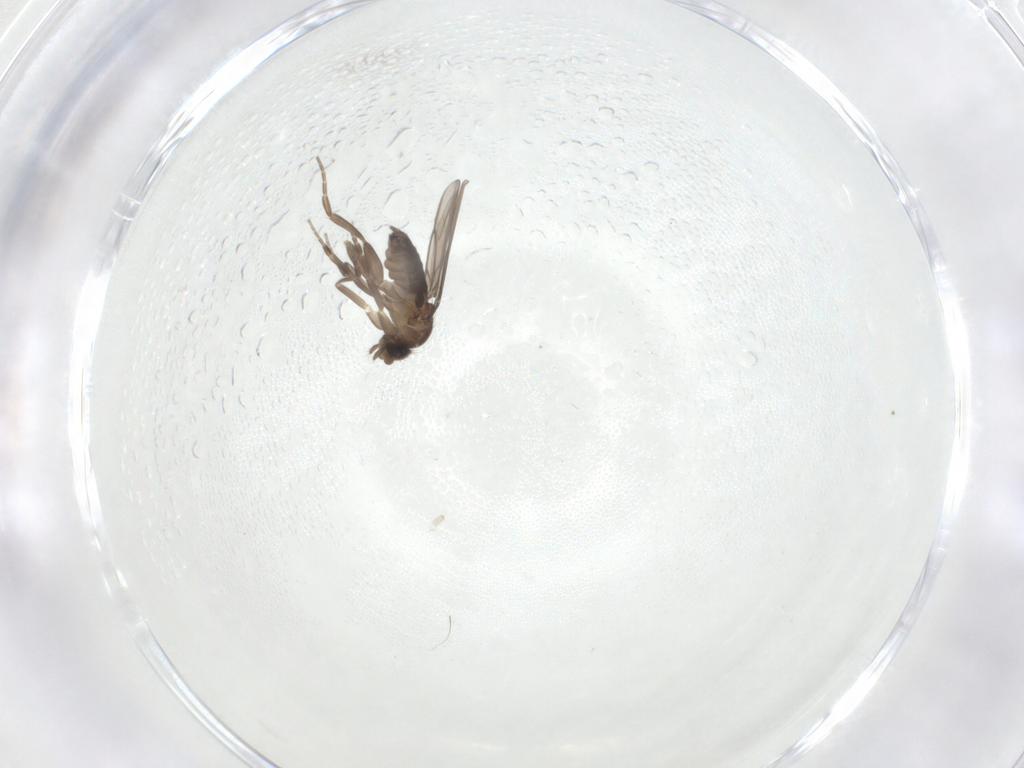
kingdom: Animalia
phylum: Arthropoda
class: Insecta
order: Diptera
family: Phoridae
